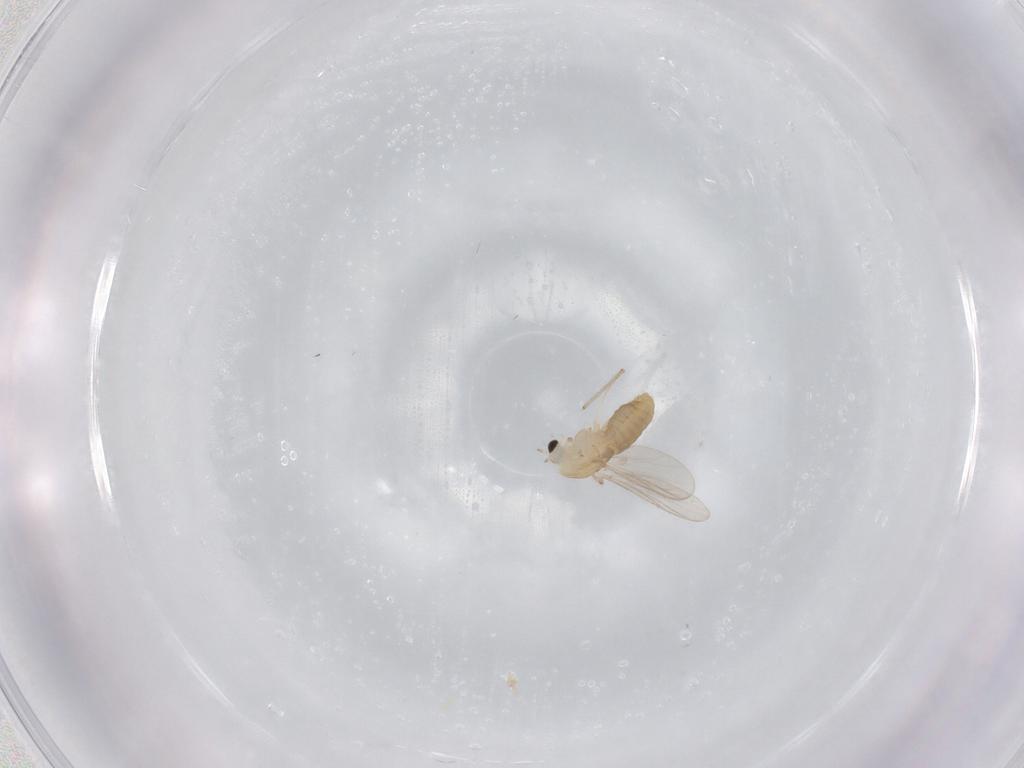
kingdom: Animalia
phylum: Arthropoda
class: Insecta
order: Diptera
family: Chironomidae
